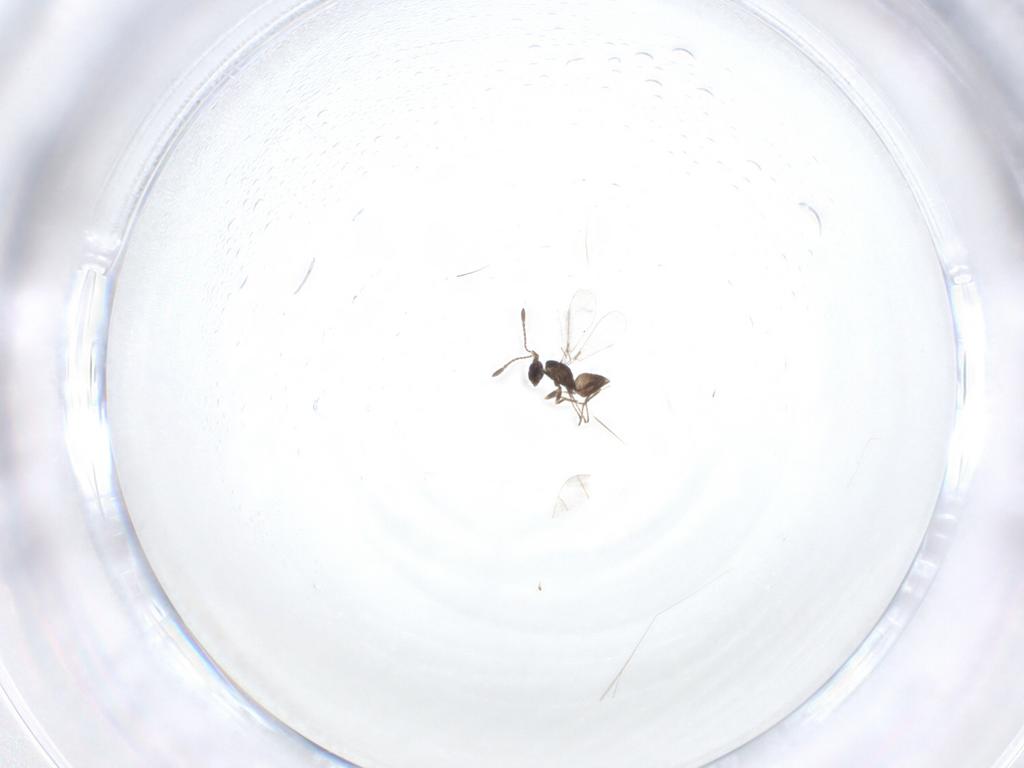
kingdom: Animalia
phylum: Arthropoda
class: Insecta
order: Hymenoptera
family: Mymaridae
